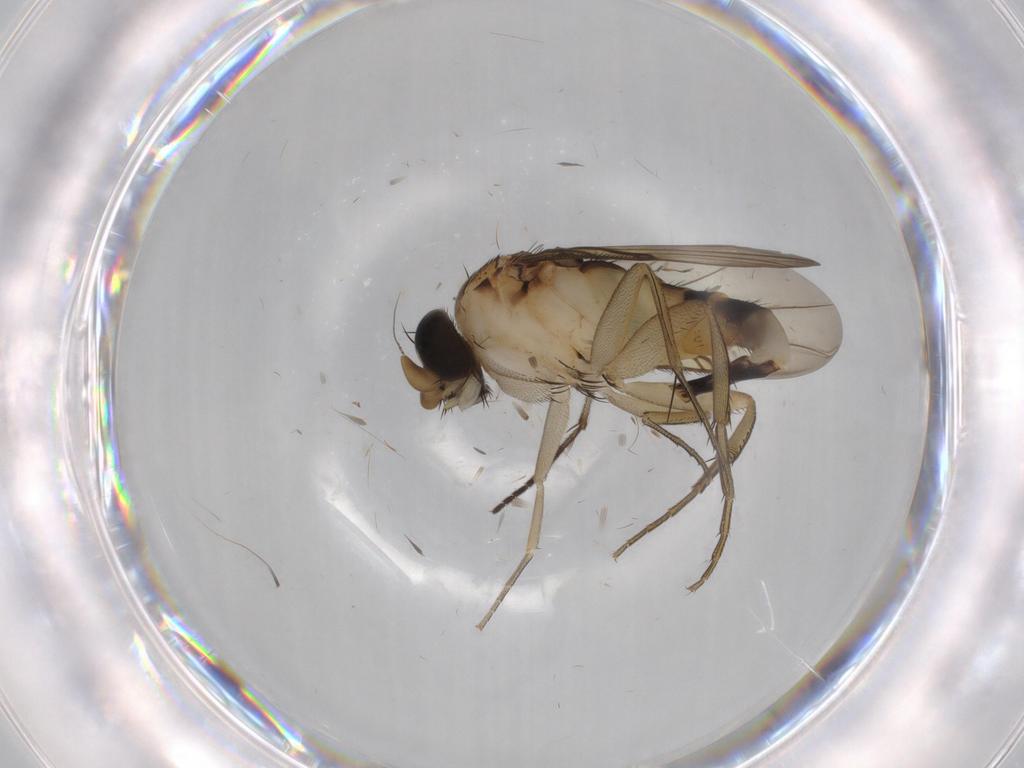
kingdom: Animalia
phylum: Arthropoda
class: Insecta
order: Diptera
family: Sciaridae
